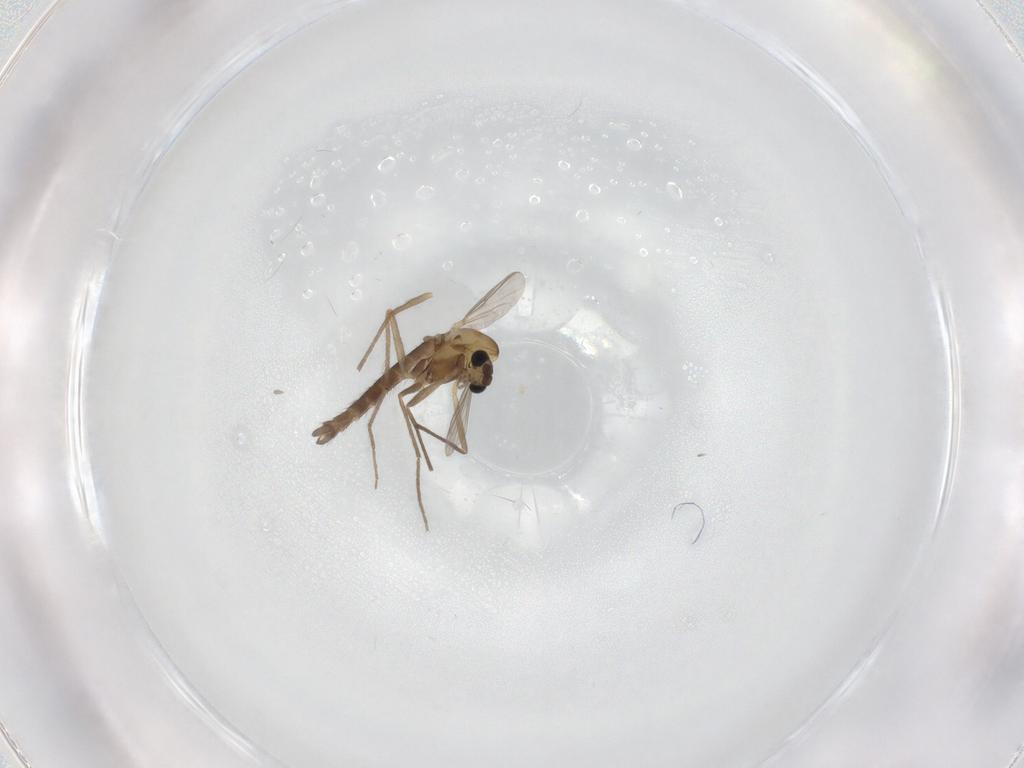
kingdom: Animalia
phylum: Arthropoda
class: Insecta
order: Diptera
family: Chironomidae
